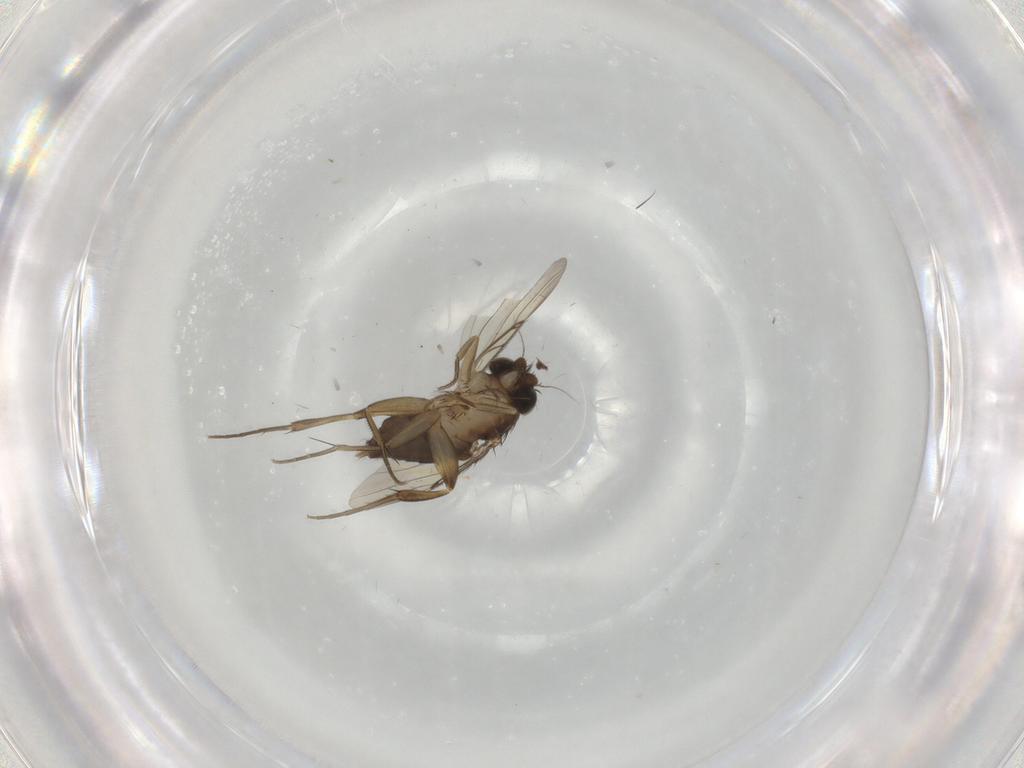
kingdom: Animalia
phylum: Arthropoda
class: Insecta
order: Diptera
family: Phoridae
